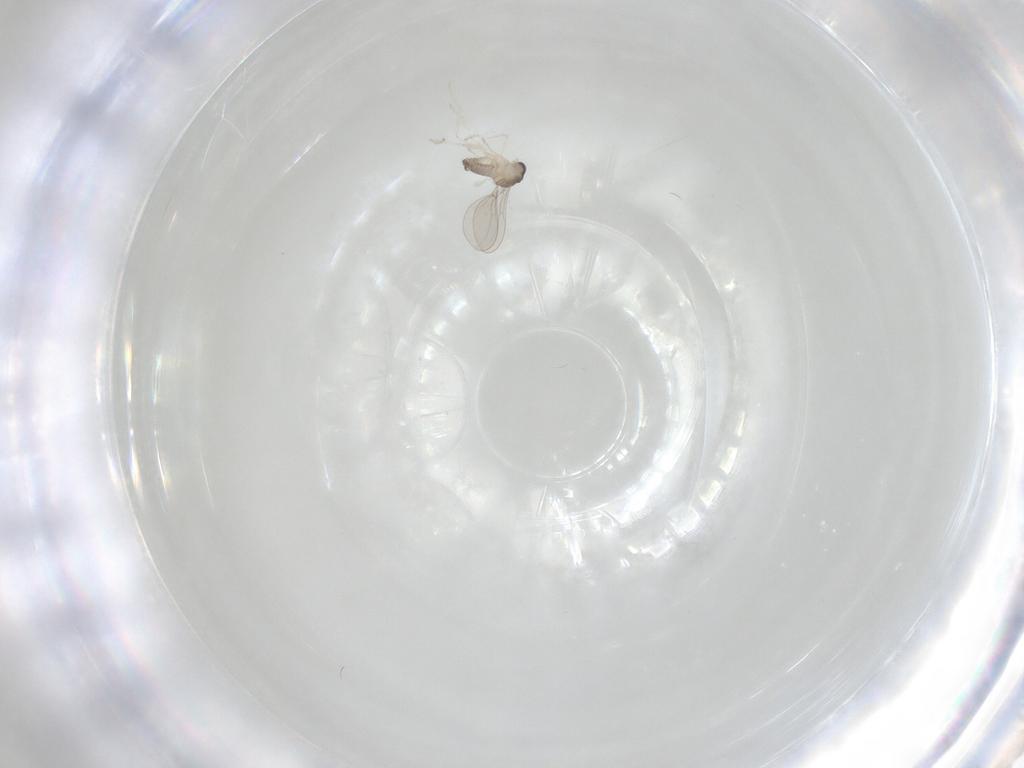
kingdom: Animalia
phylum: Arthropoda
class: Insecta
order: Diptera
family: Cecidomyiidae
